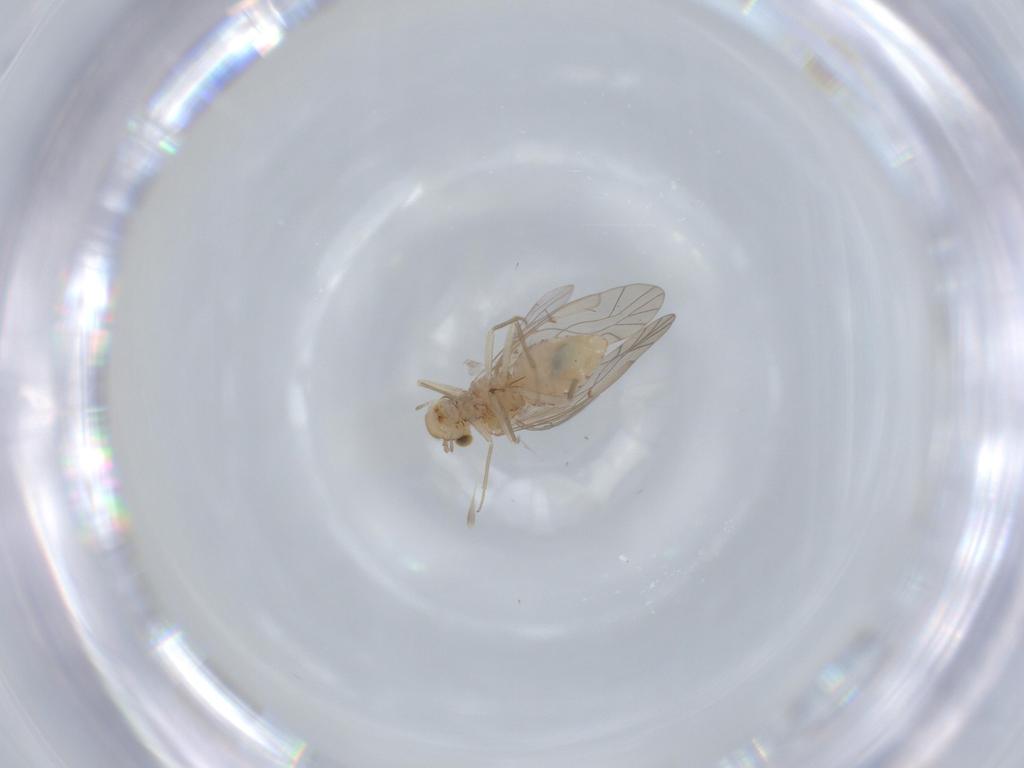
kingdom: Animalia
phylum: Arthropoda
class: Insecta
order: Psocodea
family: Lachesillidae
